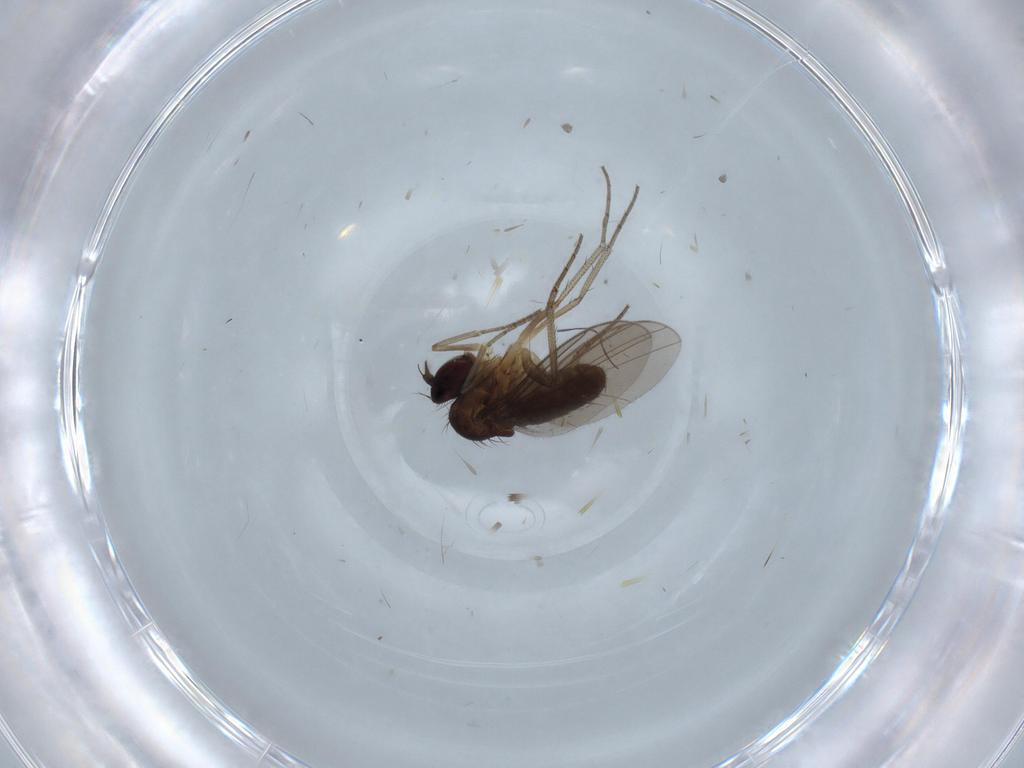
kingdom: Animalia
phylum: Arthropoda
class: Insecta
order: Diptera
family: Dolichopodidae
